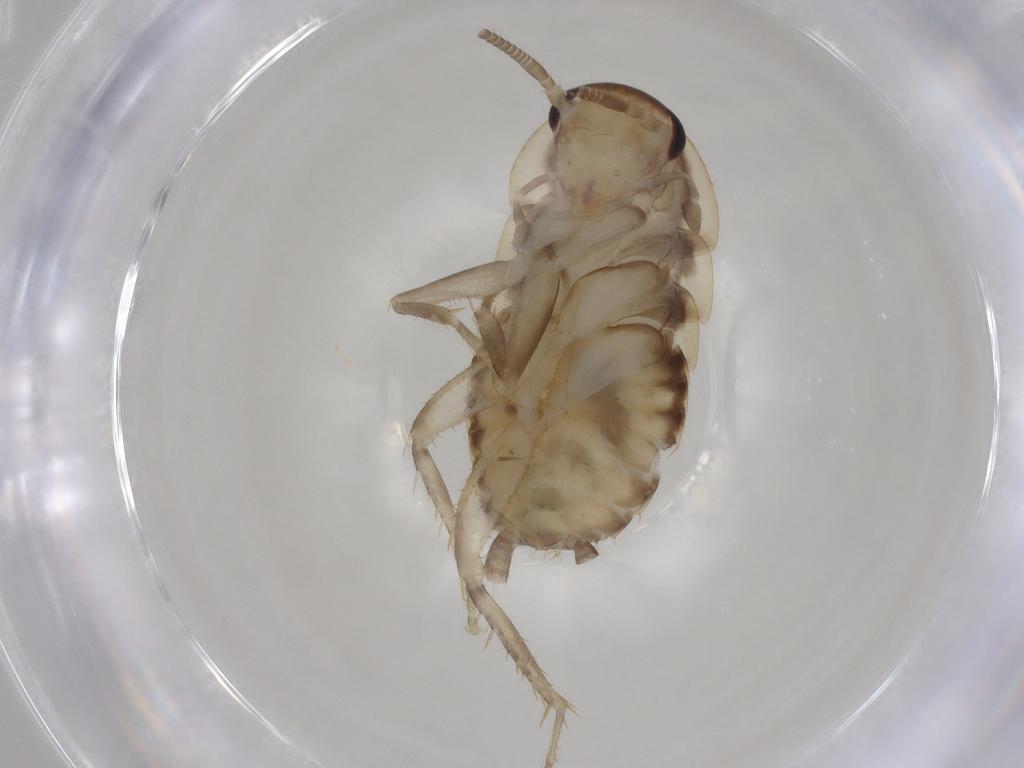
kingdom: Animalia
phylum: Arthropoda
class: Insecta
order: Blattodea
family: Ectobiidae
